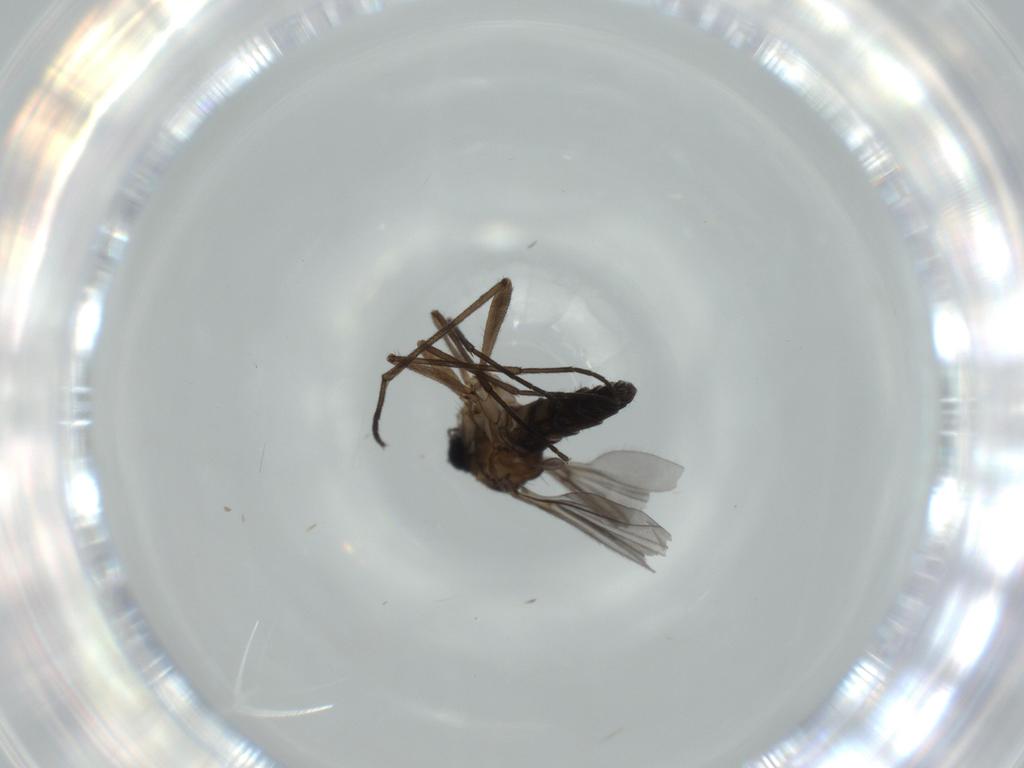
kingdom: Animalia
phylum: Arthropoda
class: Insecta
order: Diptera
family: Sciaridae
